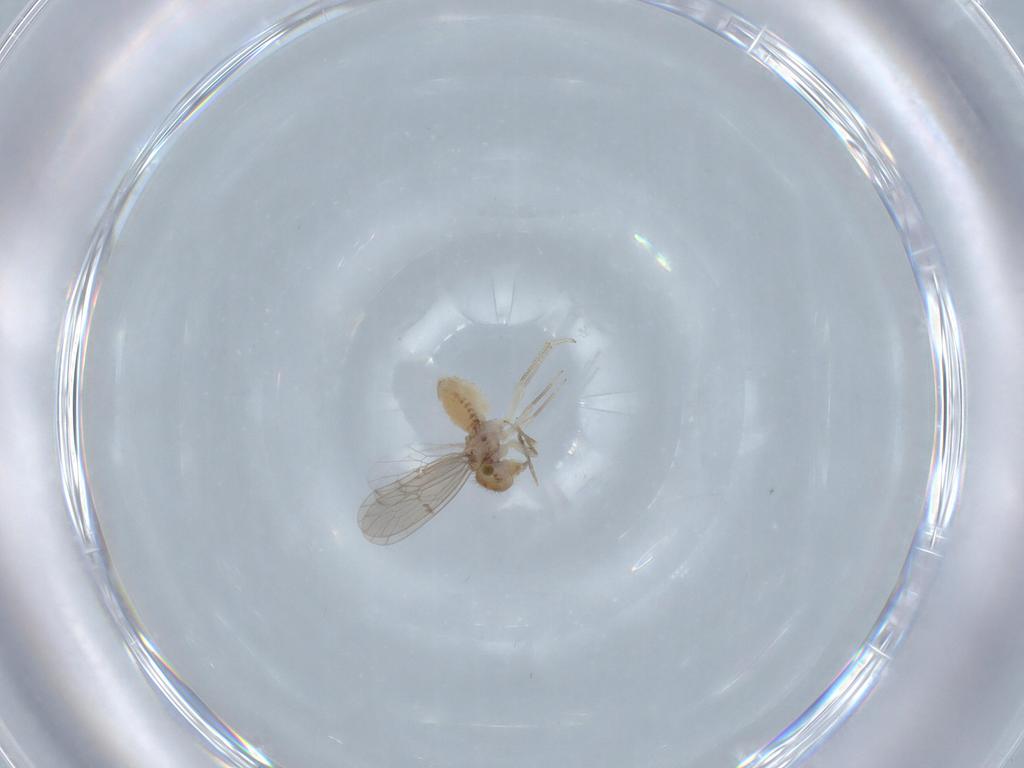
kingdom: Animalia
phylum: Arthropoda
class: Insecta
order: Psocodea
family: Ectopsocidae
